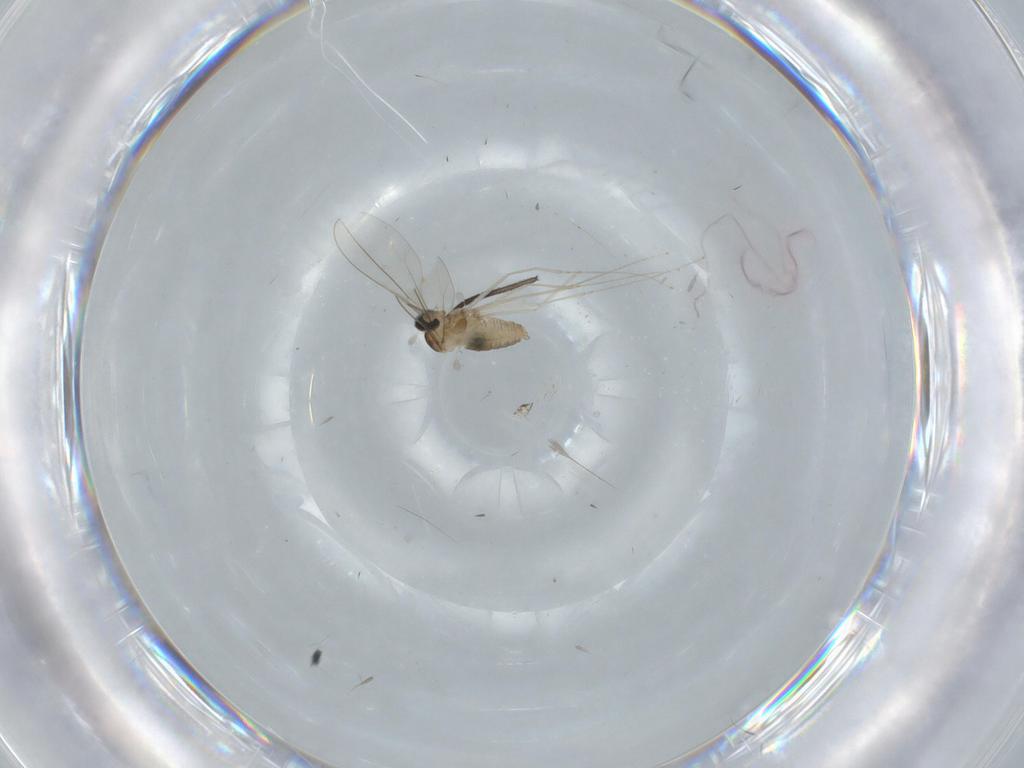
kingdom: Animalia
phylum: Arthropoda
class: Insecta
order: Diptera
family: Cecidomyiidae
